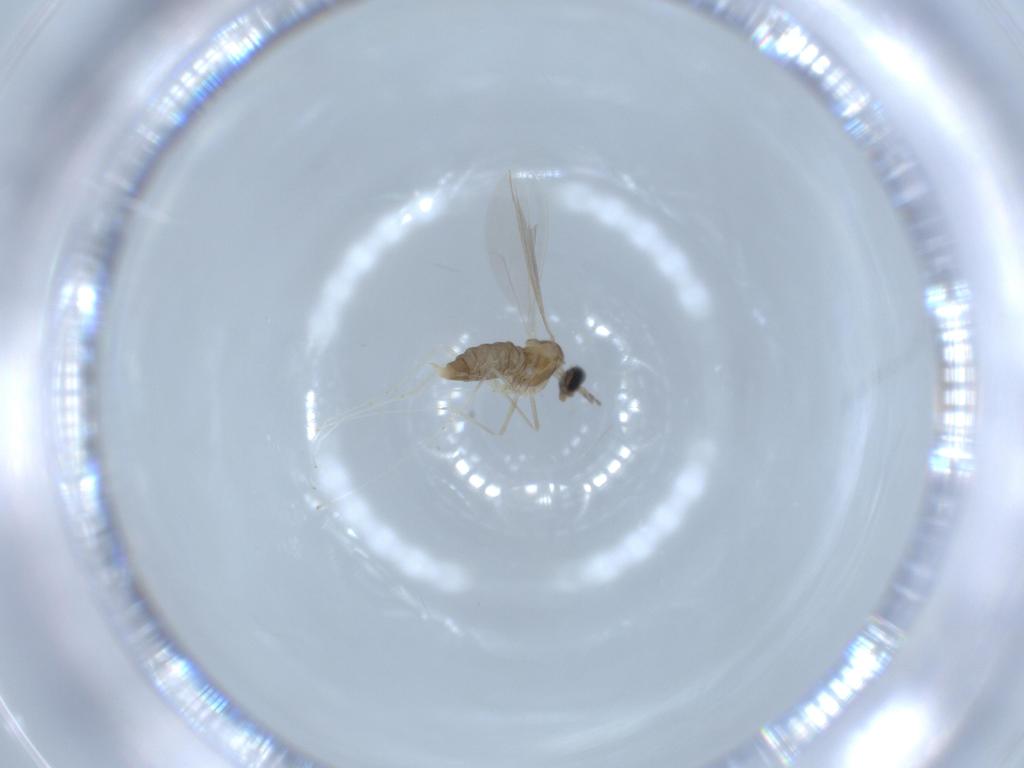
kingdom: Animalia
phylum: Arthropoda
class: Insecta
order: Diptera
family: Cecidomyiidae
